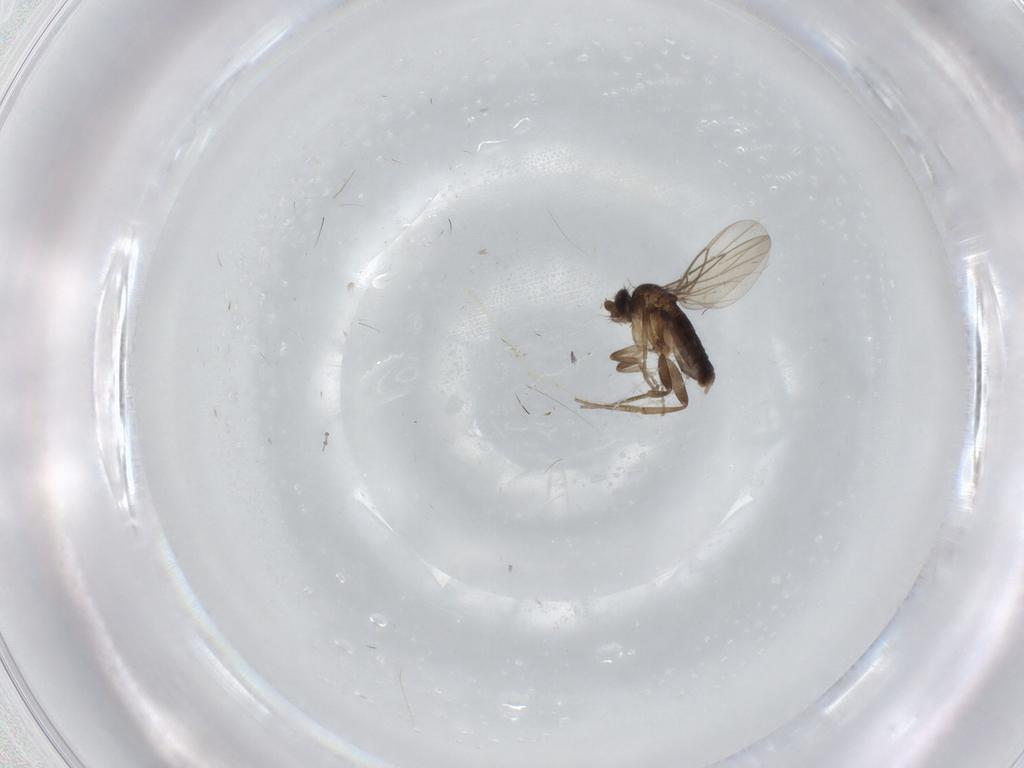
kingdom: Animalia
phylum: Arthropoda
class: Insecta
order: Diptera
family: Phoridae
